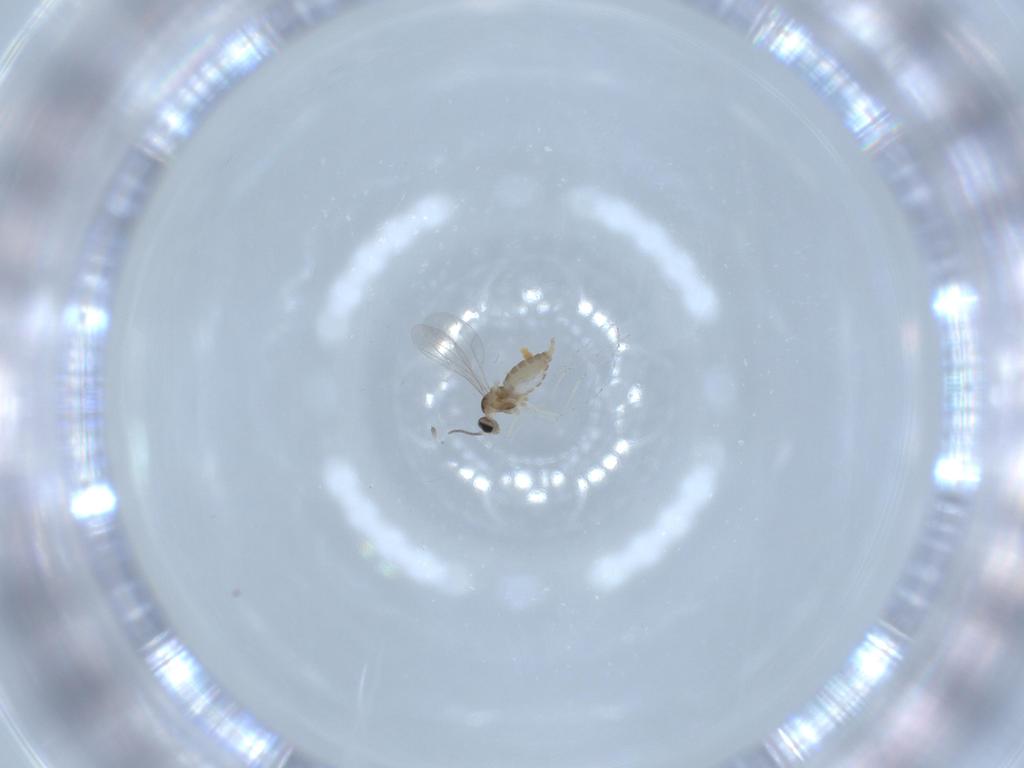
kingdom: Animalia
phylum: Arthropoda
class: Insecta
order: Diptera
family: Cecidomyiidae
